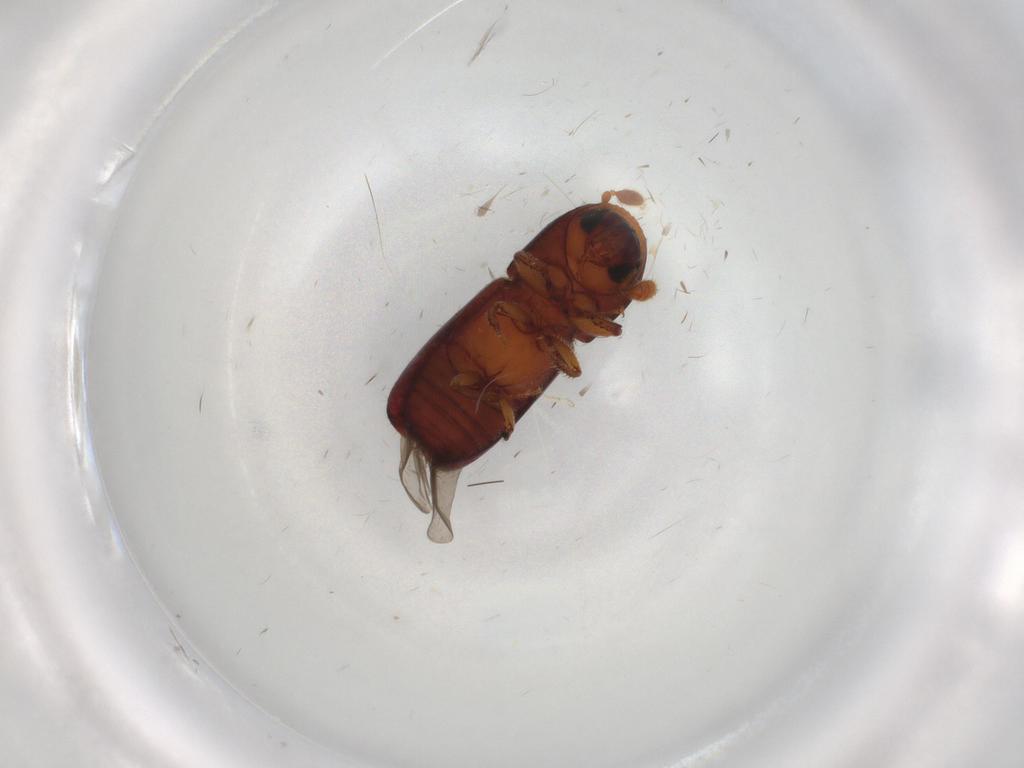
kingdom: Animalia
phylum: Arthropoda
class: Insecta
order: Coleoptera
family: Curculionidae
